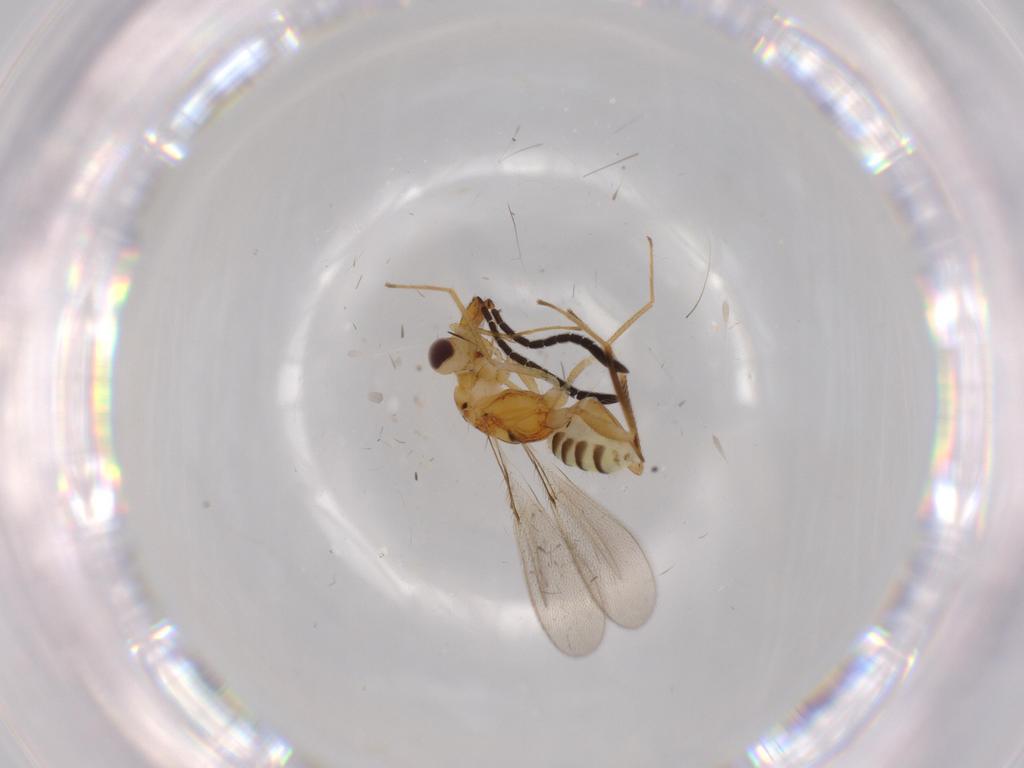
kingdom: Animalia
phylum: Arthropoda
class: Insecta
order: Hymenoptera
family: Mymaridae
